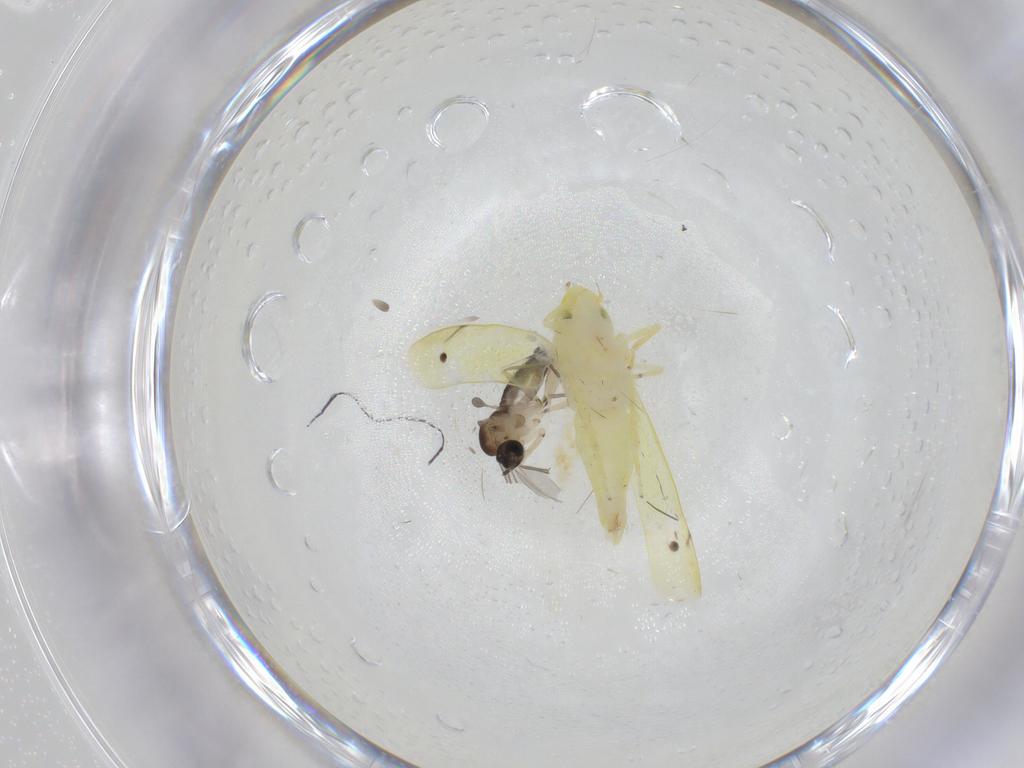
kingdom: Animalia
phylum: Arthropoda
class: Insecta
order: Hemiptera
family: Cicadellidae
